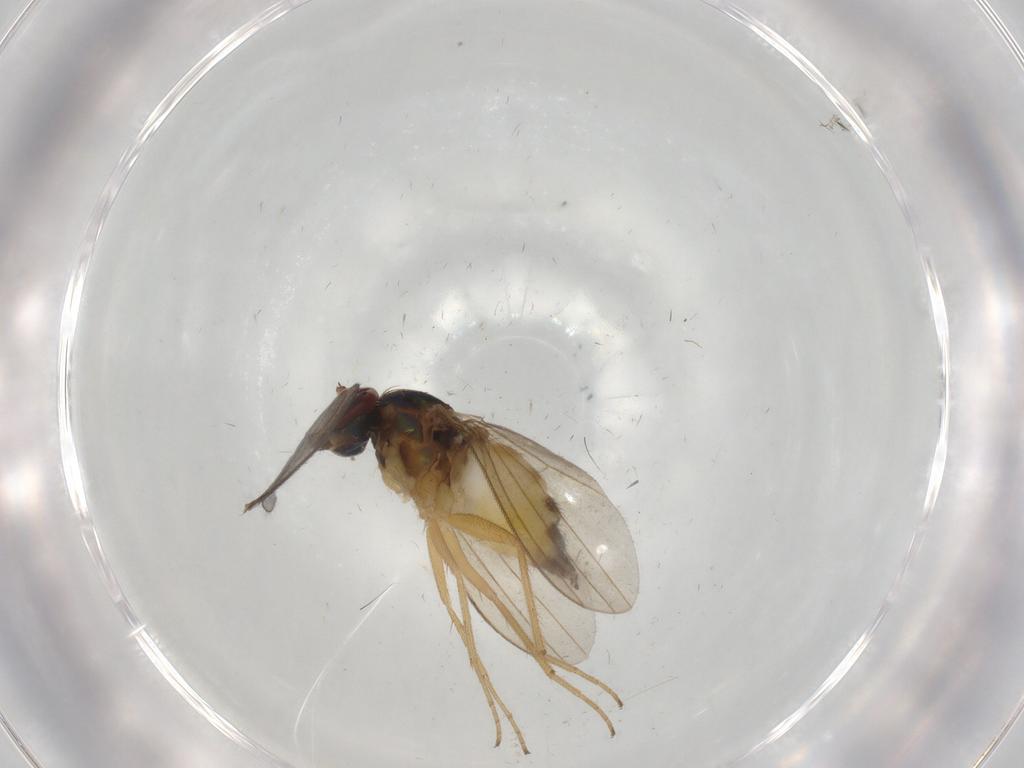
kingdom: Animalia
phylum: Arthropoda
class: Insecta
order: Diptera
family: Dolichopodidae
